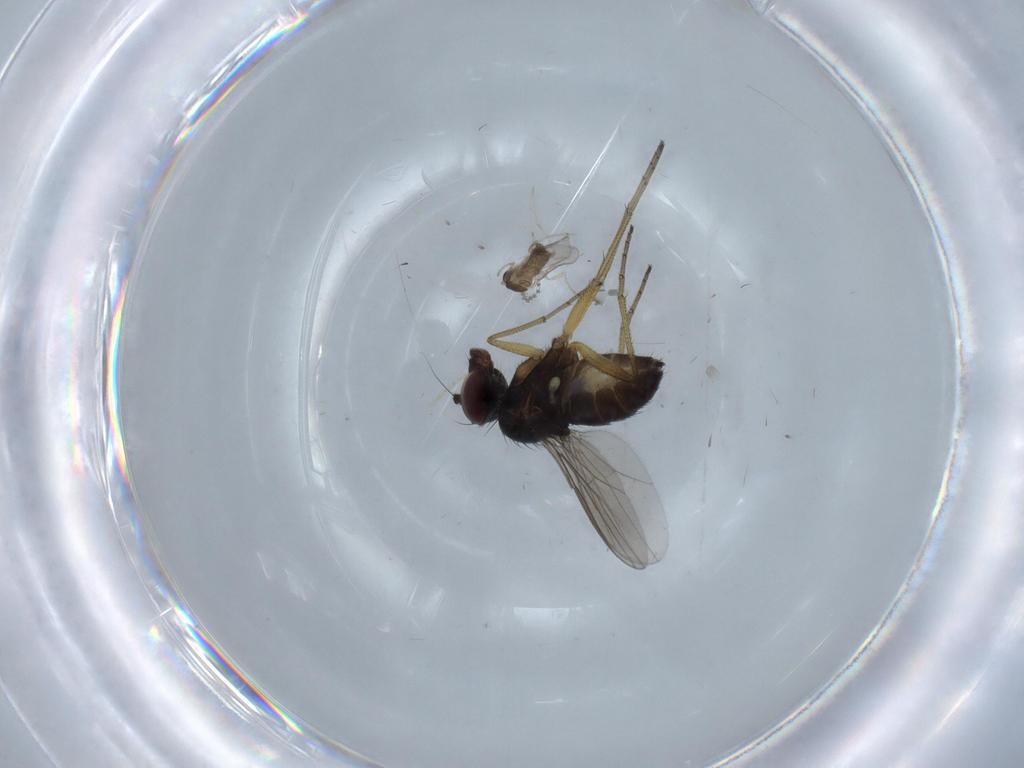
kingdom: Animalia
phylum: Arthropoda
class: Insecta
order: Diptera
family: Dolichopodidae
